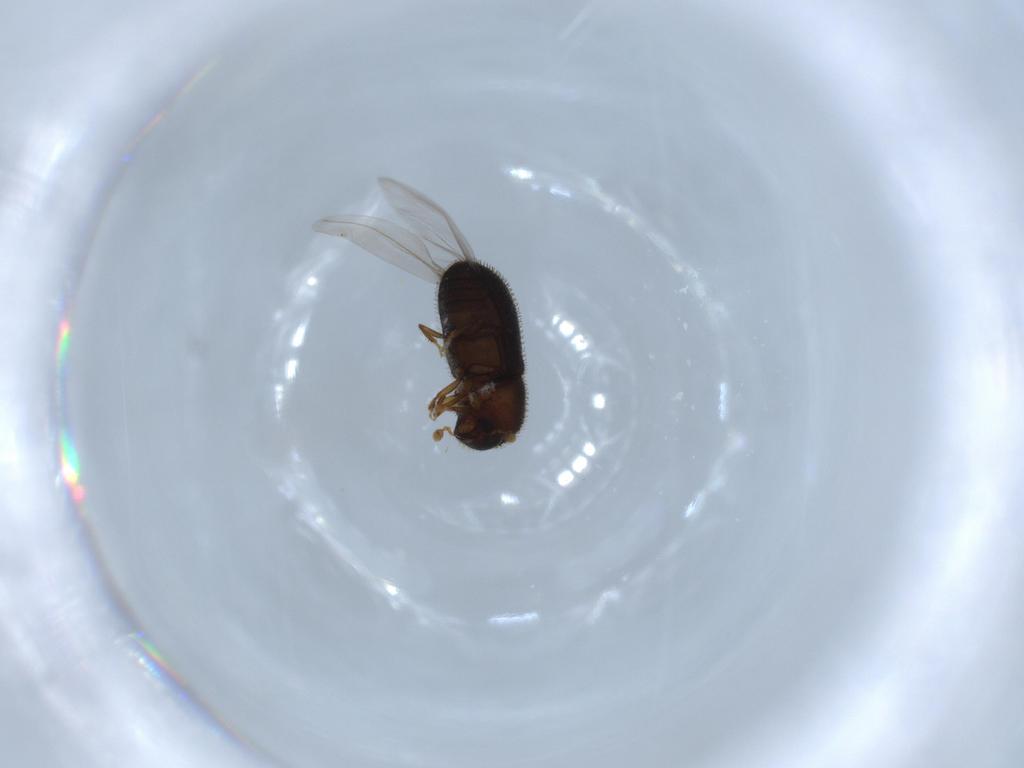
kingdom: Animalia
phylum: Arthropoda
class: Insecta
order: Coleoptera
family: Curculionidae
